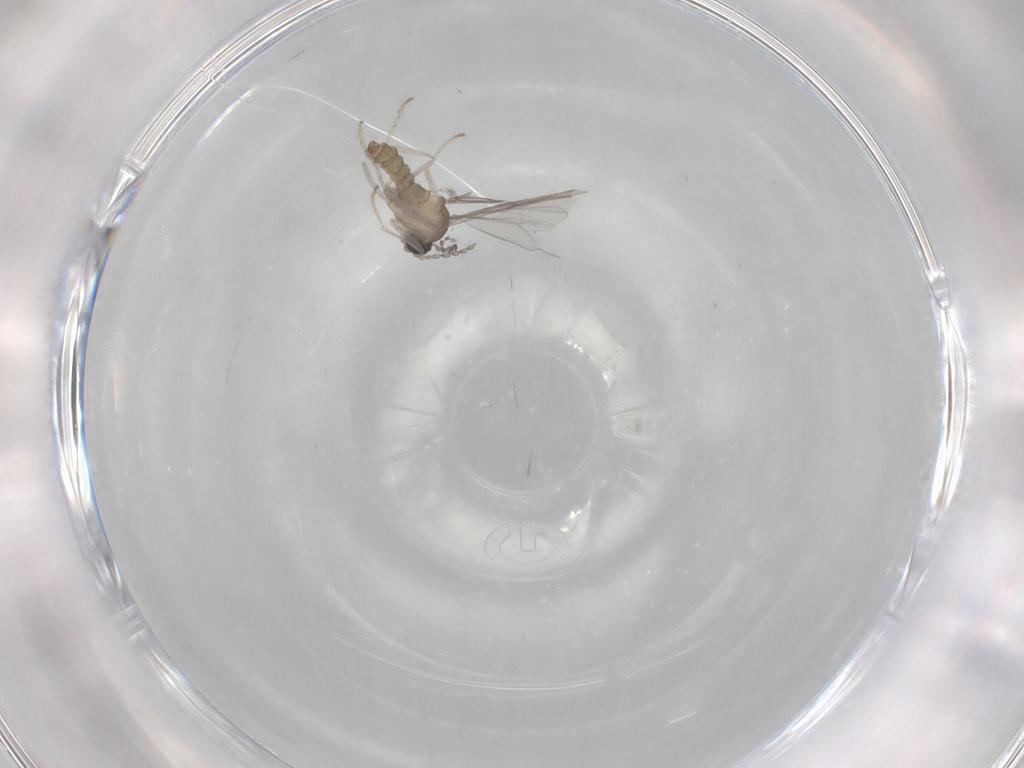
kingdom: Animalia
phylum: Arthropoda
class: Insecta
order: Diptera
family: Cecidomyiidae
